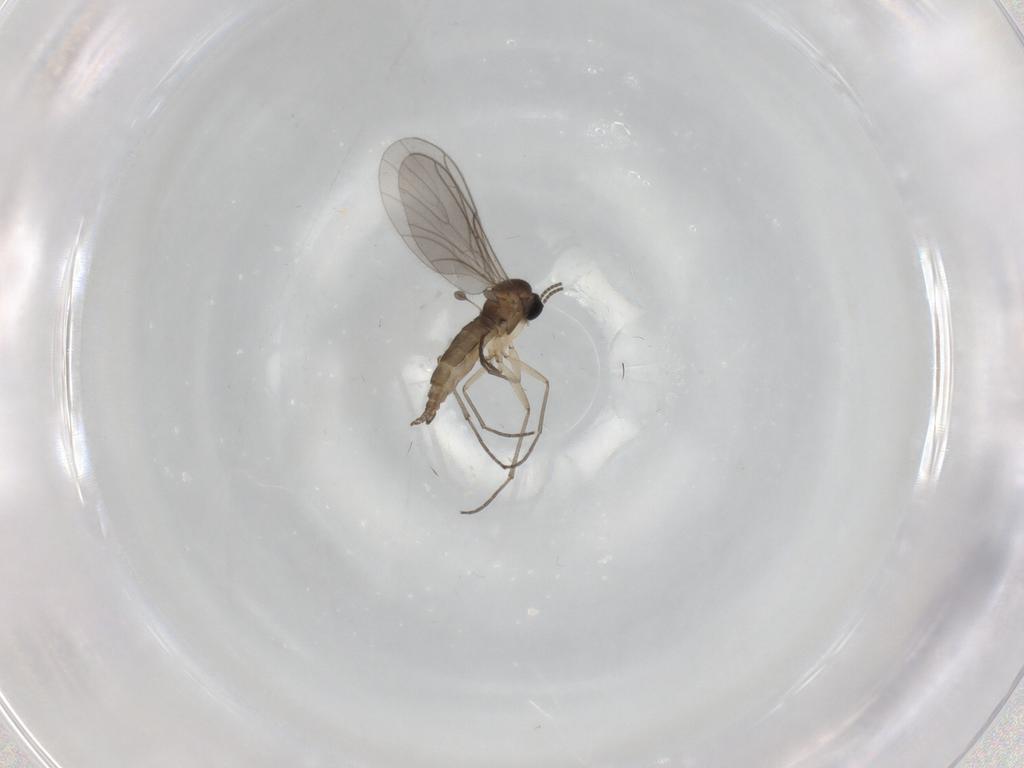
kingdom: Animalia
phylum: Arthropoda
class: Insecta
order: Diptera
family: Sciaridae
